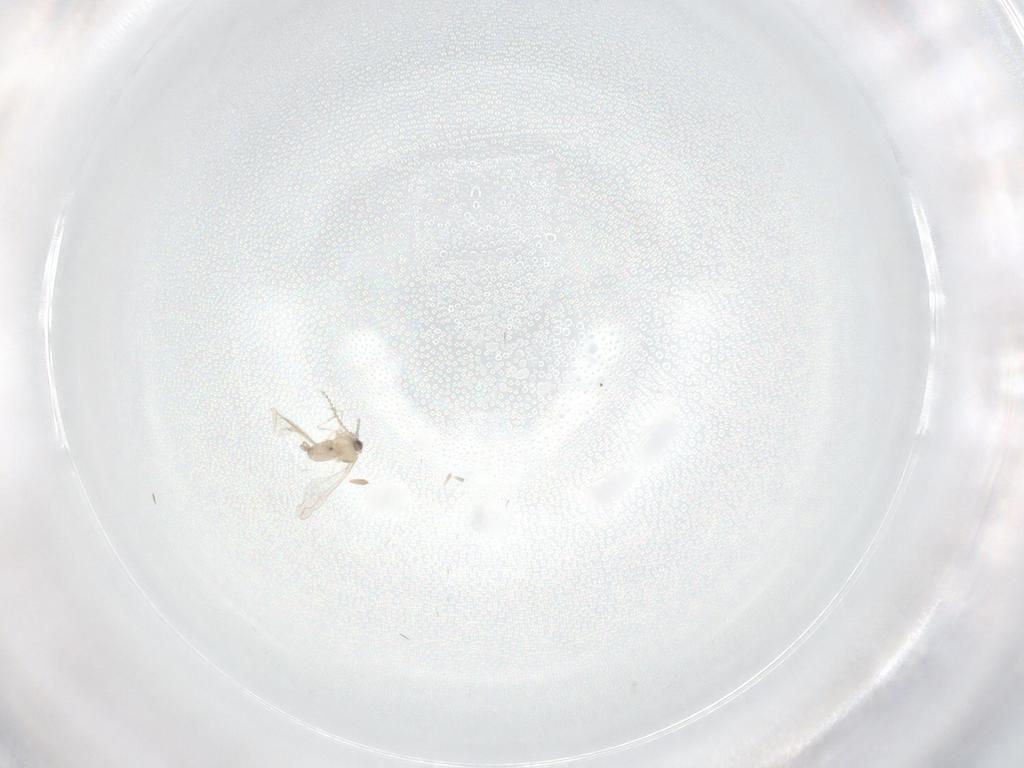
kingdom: Animalia
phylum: Arthropoda
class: Insecta
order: Diptera
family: Cecidomyiidae
